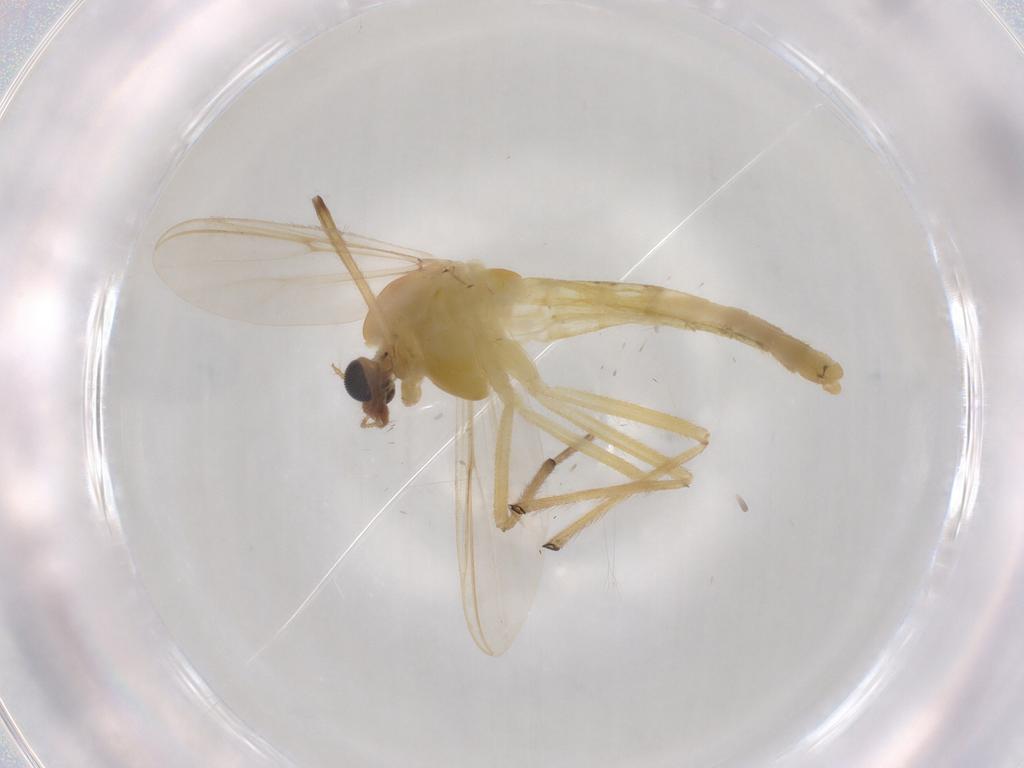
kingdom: Animalia
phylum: Arthropoda
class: Insecta
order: Diptera
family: Chironomidae
